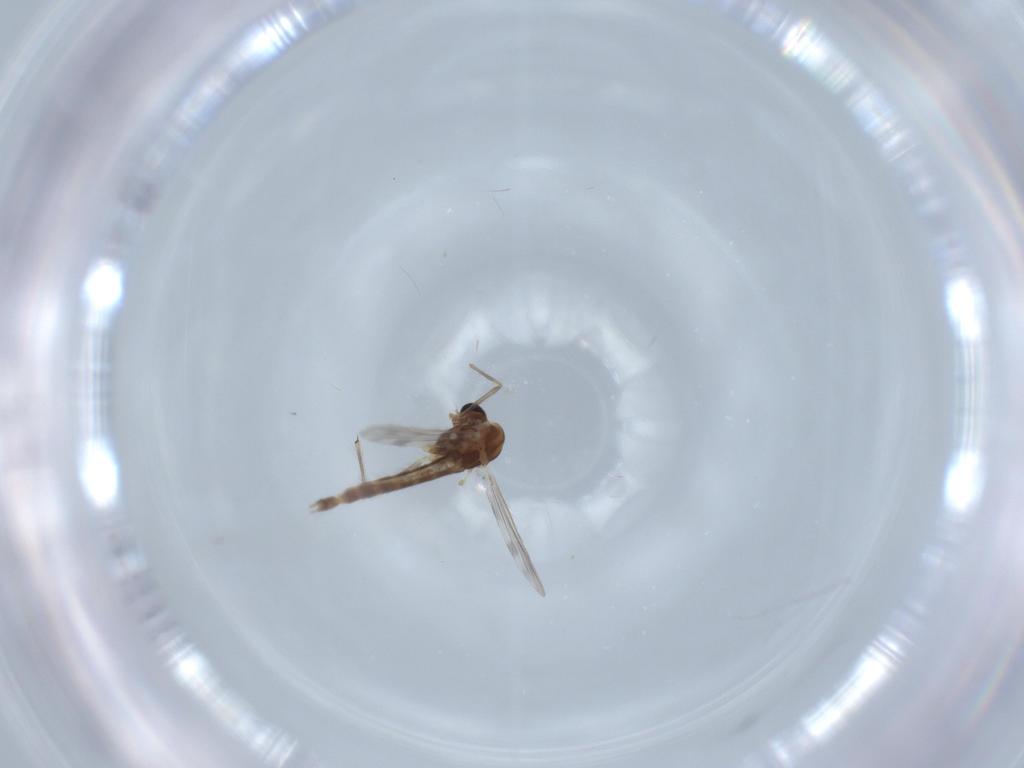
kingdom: Animalia
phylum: Arthropoda
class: Insecta
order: Diptera
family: Chironomidae
